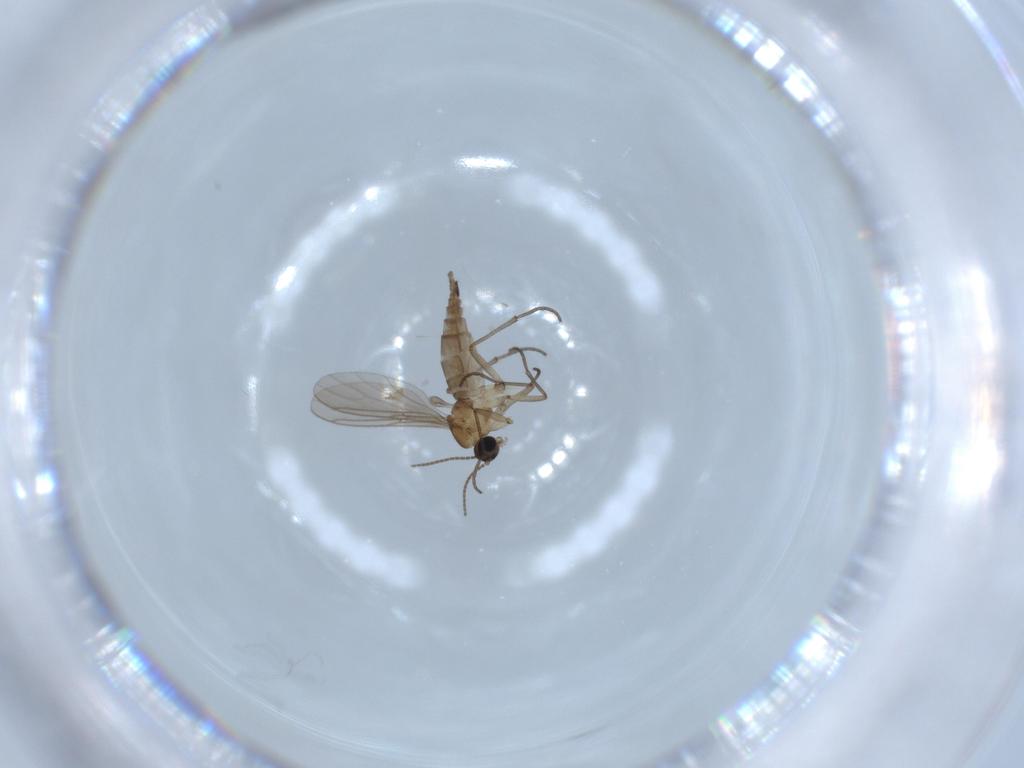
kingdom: Animalia
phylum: Arthropoda
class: Insecta
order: Diptera
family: Sciaridae
